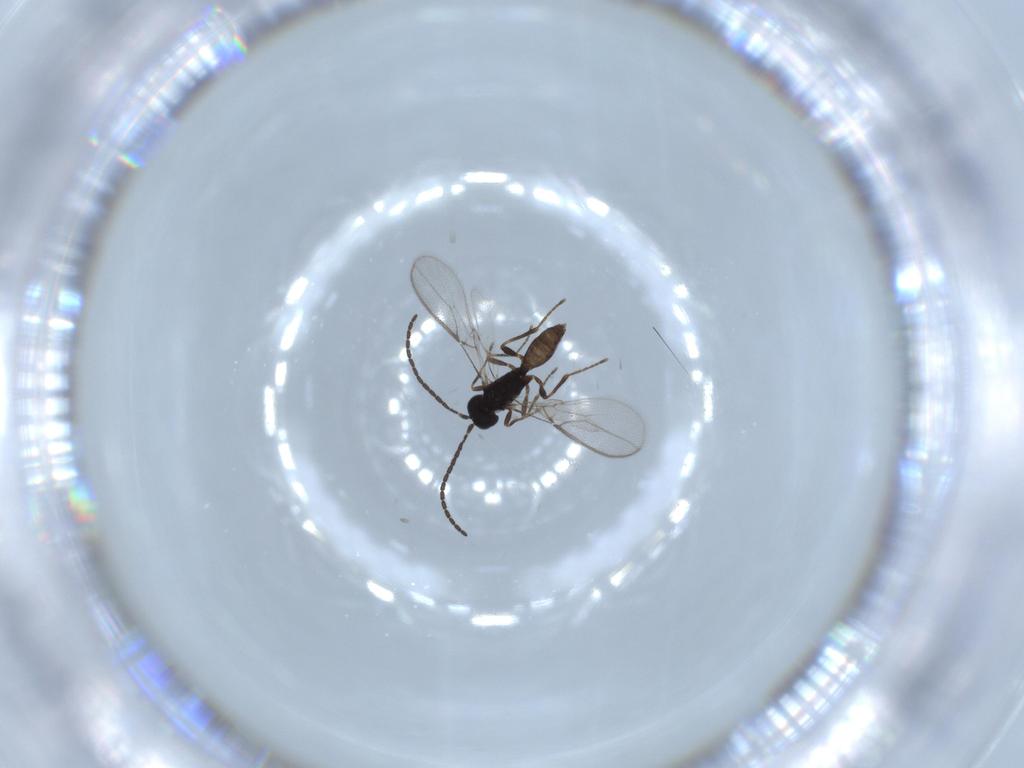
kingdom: Animalia
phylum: Arthropoda
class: Insecta
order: Hymenoptera
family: Braconidae
